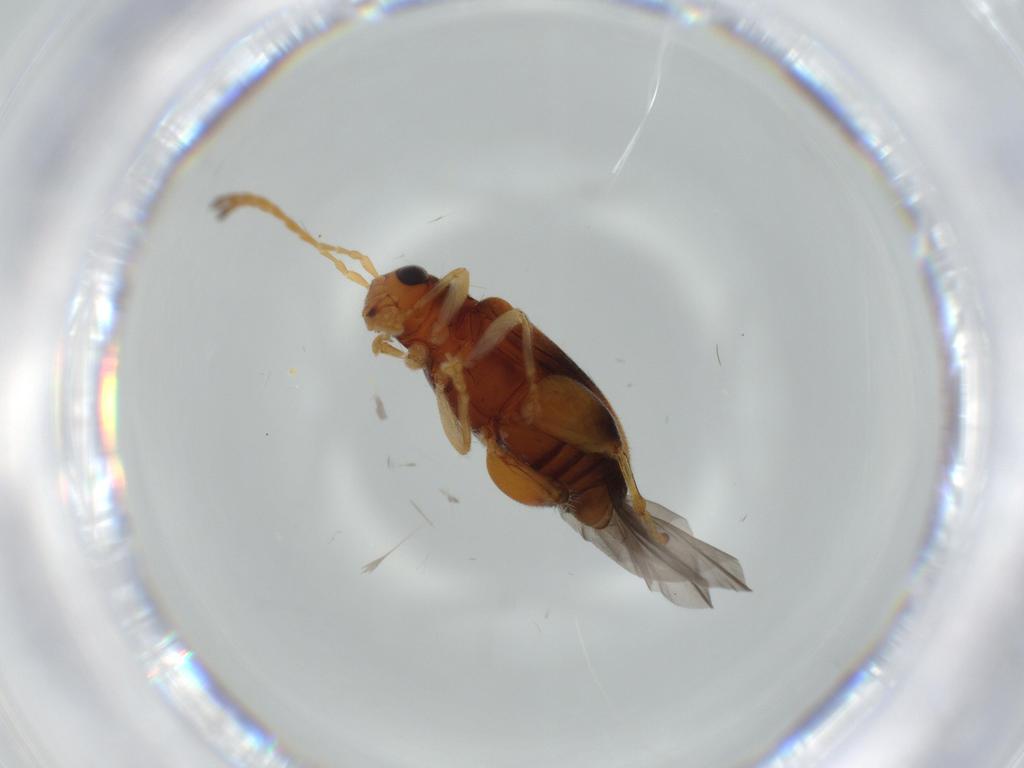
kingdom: Animalia
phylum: Arthropoda
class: Insecta
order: Coleoptera
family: Chrysomelidae
